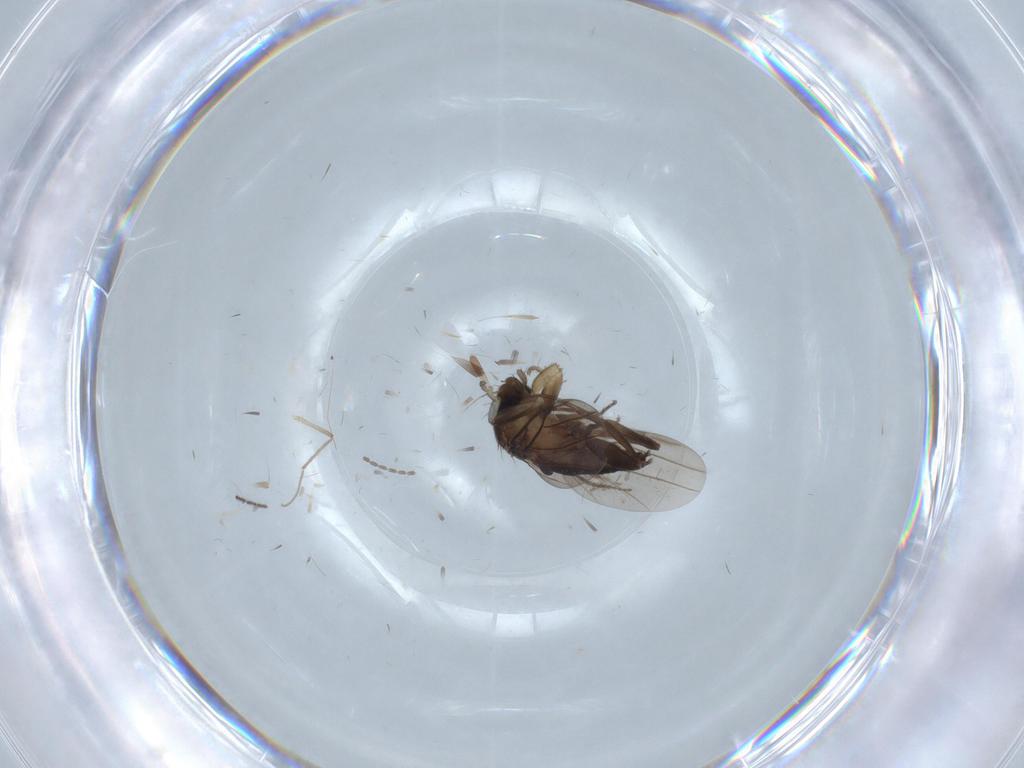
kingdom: Animalia
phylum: Arthropoda
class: Insecta
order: Diptera
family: Limoniidae
